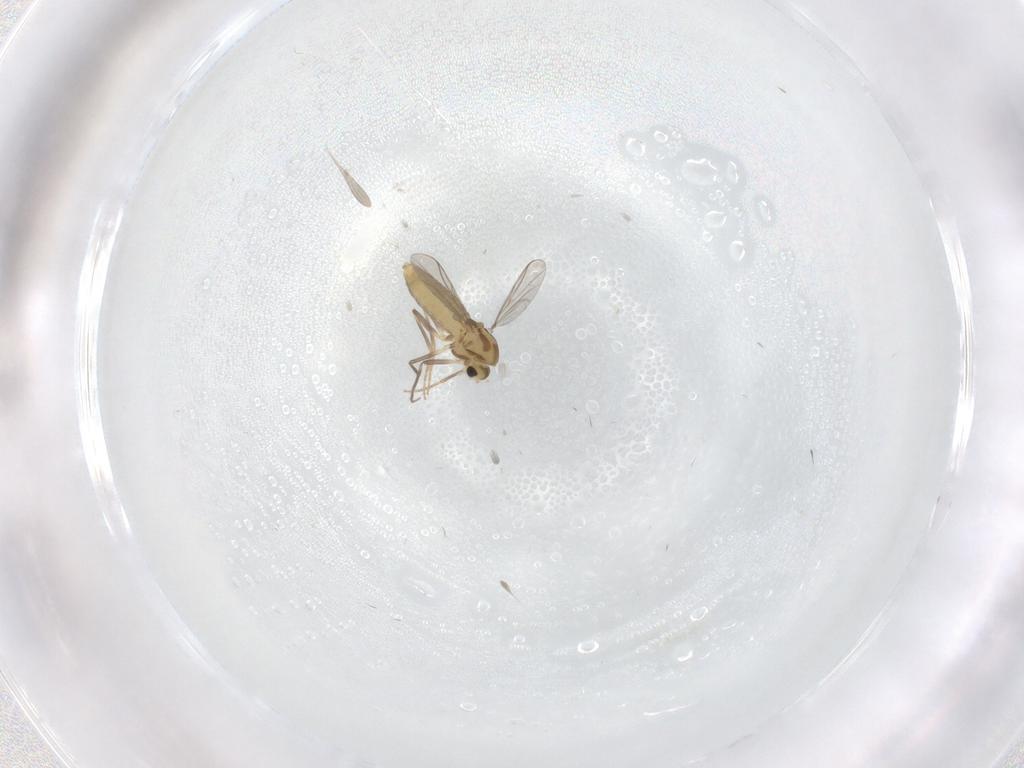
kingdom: Animalia
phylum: Arthropoda
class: Insecta
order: Diptera
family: Chironomidae
